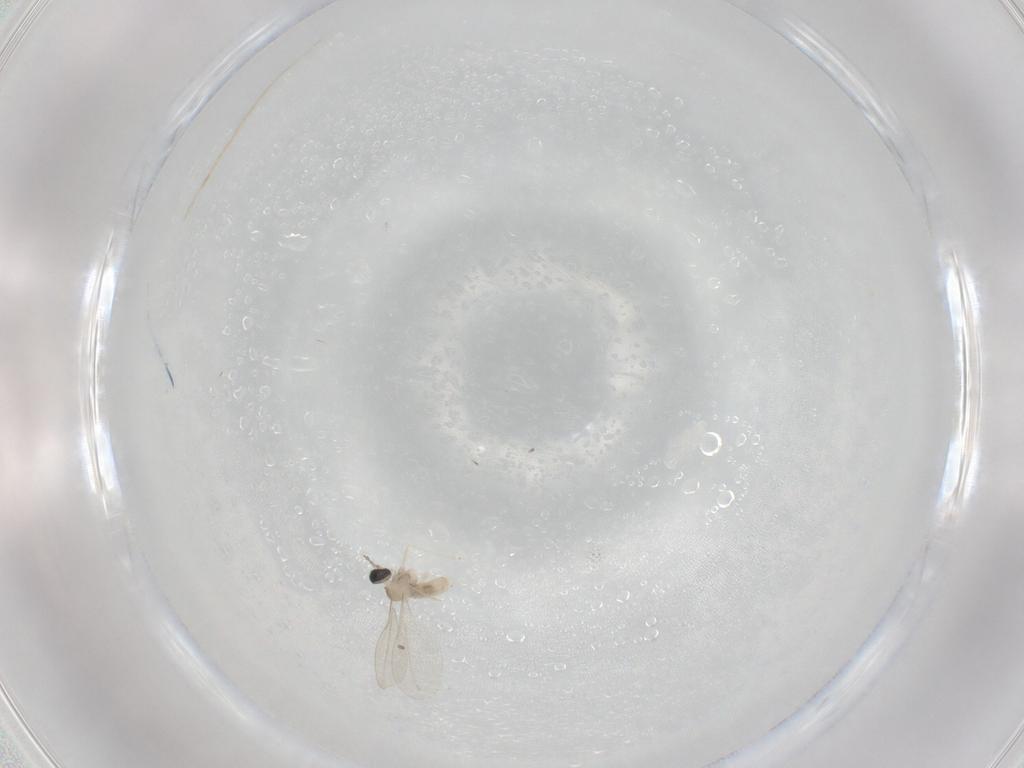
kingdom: Animalia
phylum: Arthropoda
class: Insecta
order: Diptera
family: Cecidomyiidae
